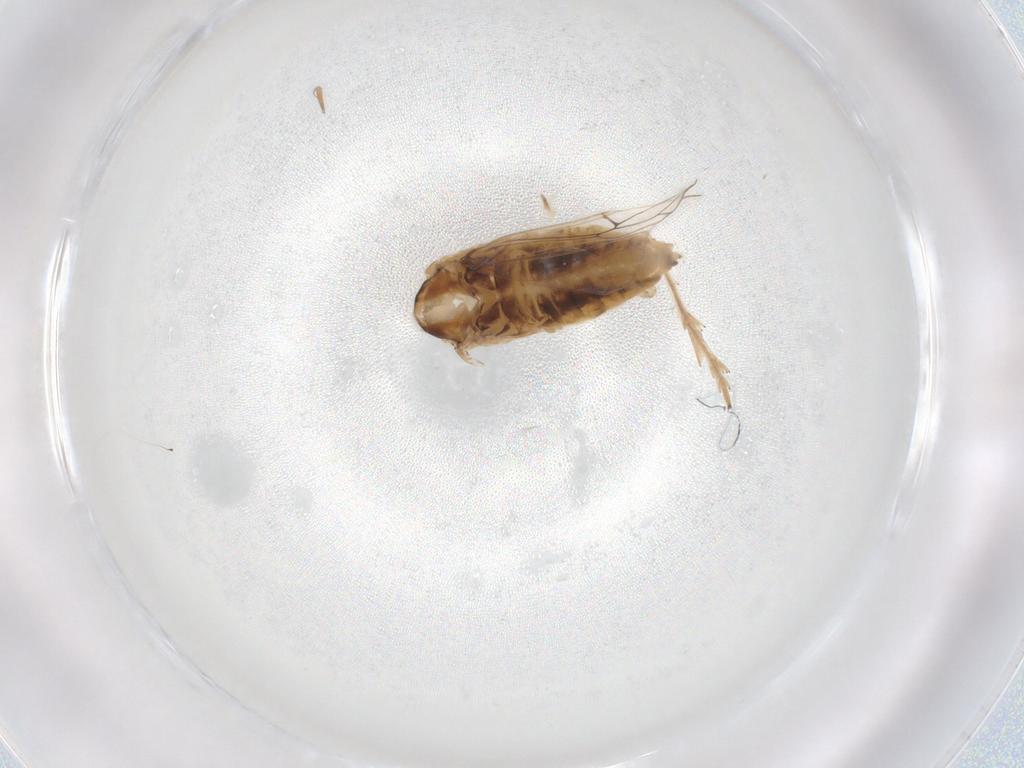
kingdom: Animalia
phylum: Arthropoda
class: Insecta
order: Hemiptera
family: Delphacidae
